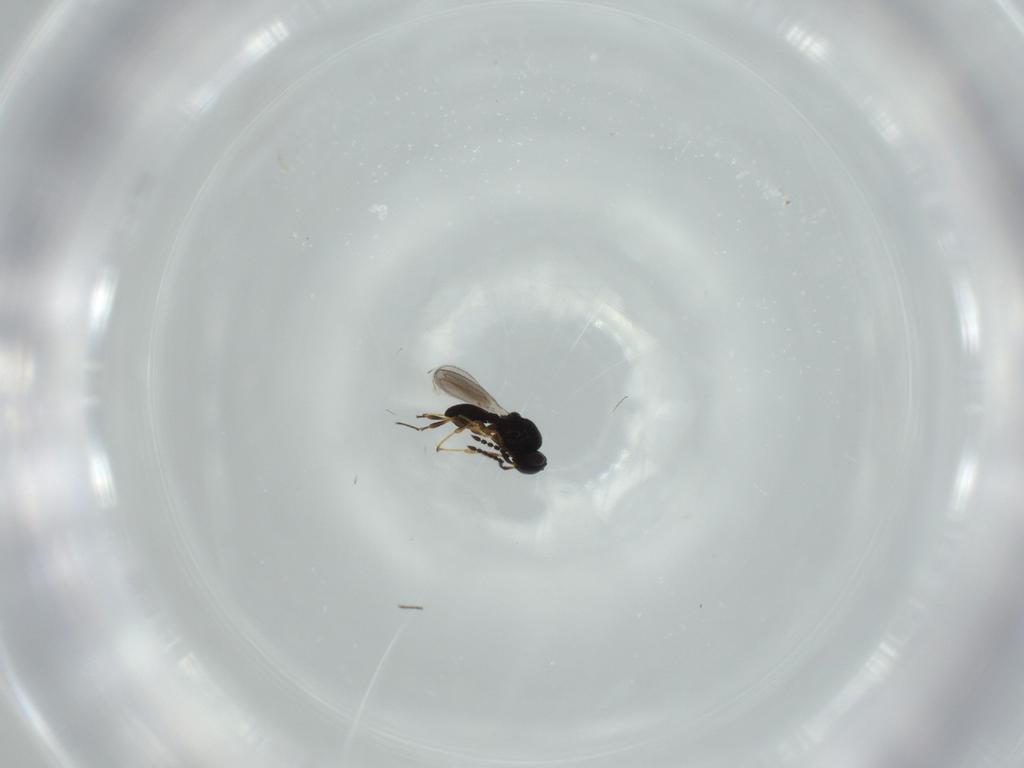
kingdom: Animalia
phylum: Arthropoda
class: Insecta
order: Hymenoptera
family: Platygastridae
